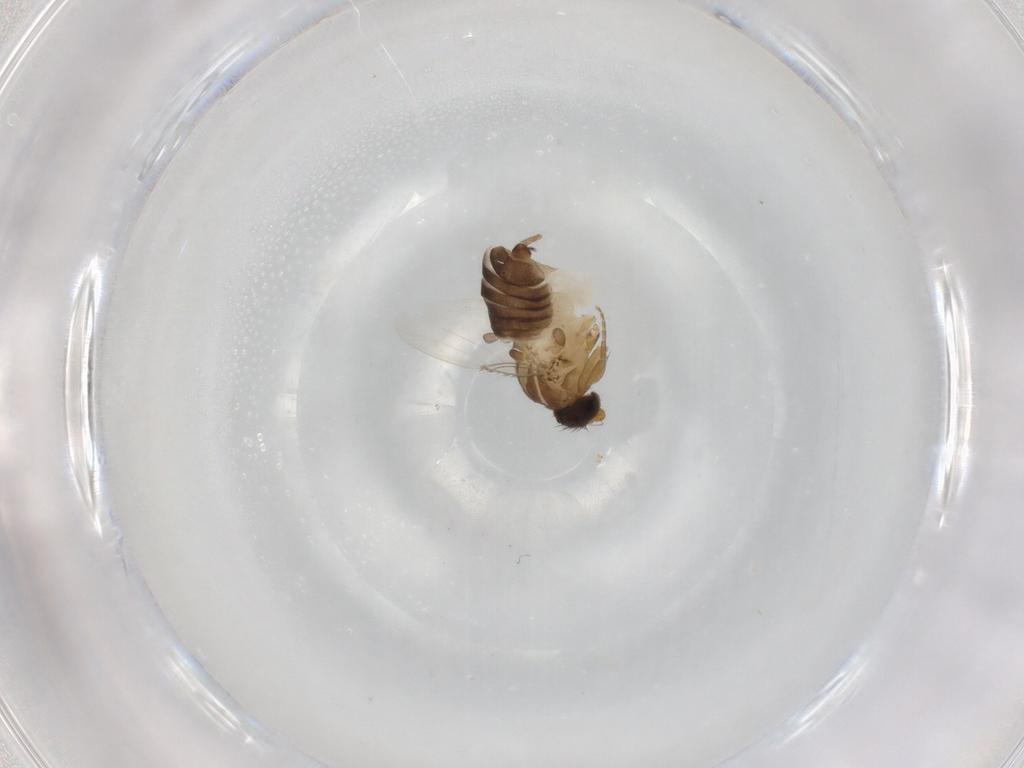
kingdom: Animalia
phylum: Arthropoda
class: Insecta
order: Diptera
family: Phoridae
